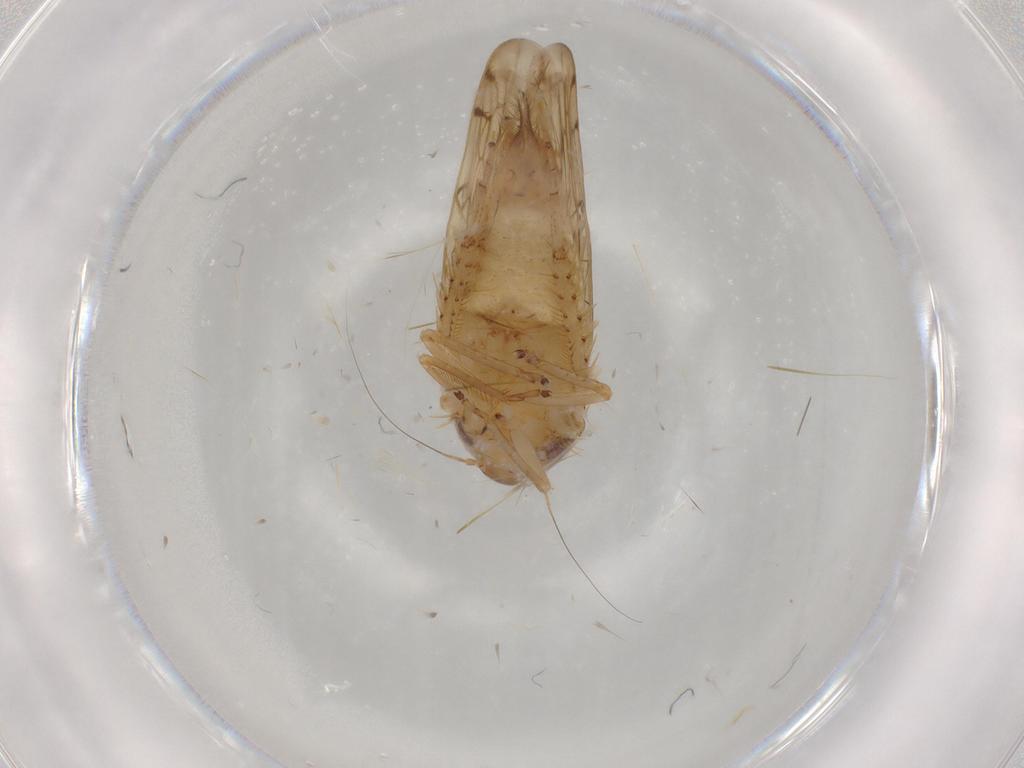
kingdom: Animalia
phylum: Arthropoda
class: Insecta
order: Hemiptera
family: Cicadellidae
